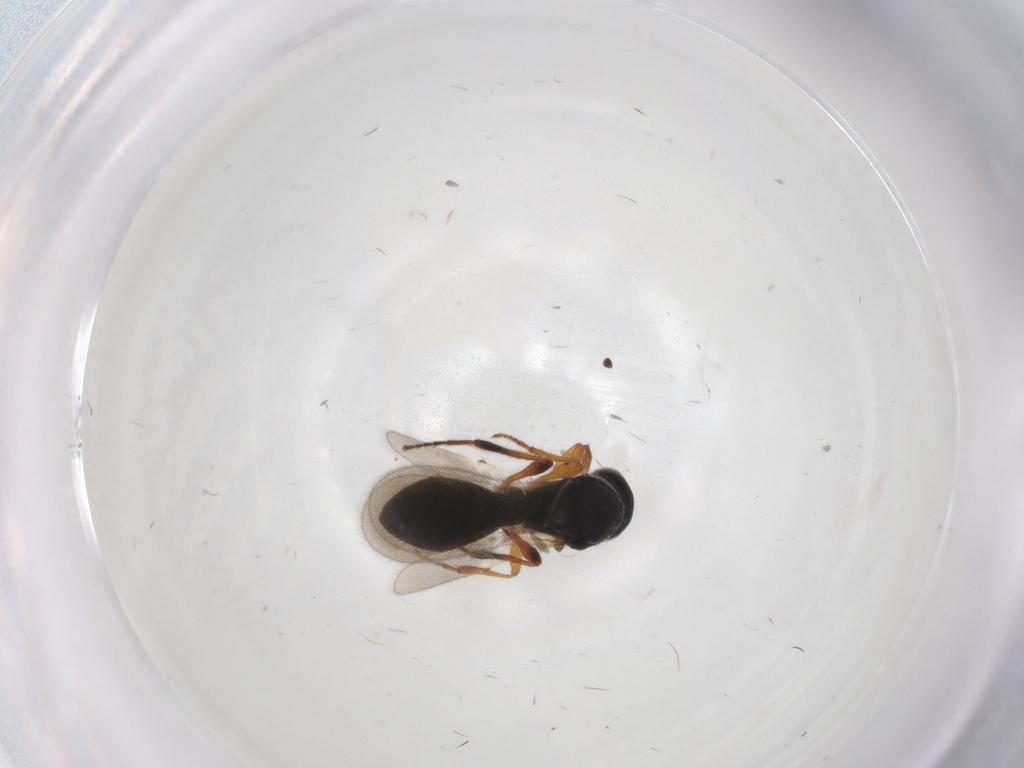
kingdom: Animalia
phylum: Arthropoda
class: Insecta
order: Hymenoptera
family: Platygastridae
